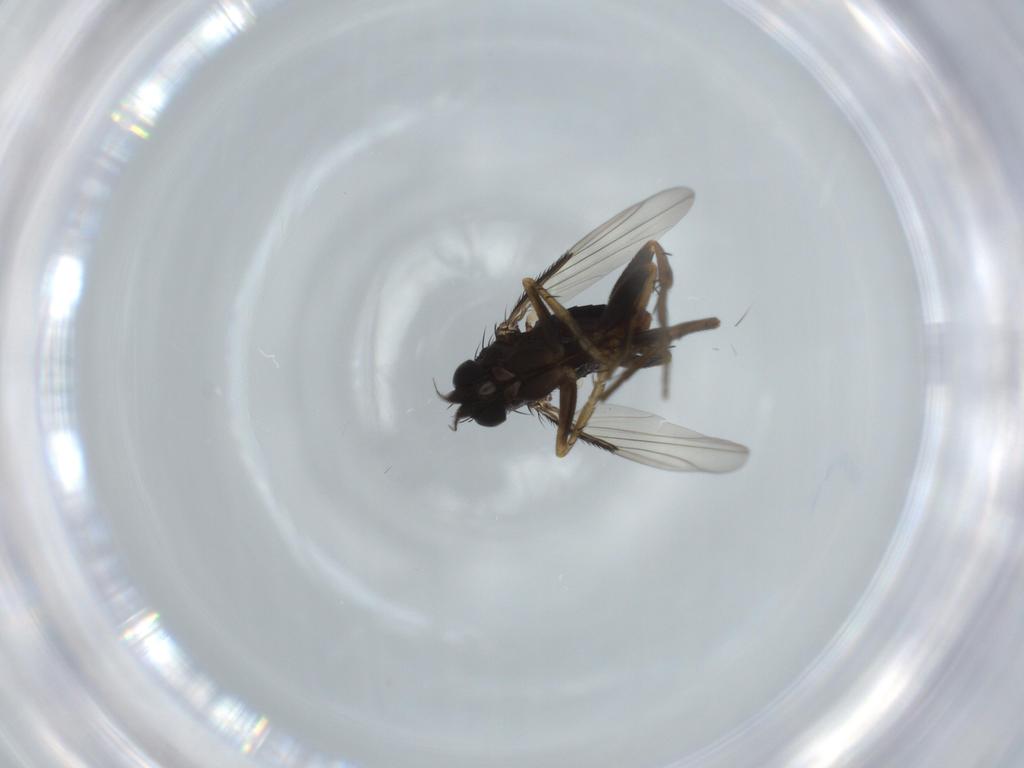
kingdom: Animalia
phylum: Arthropoda
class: Insecta
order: Diptera
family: Phoridae
